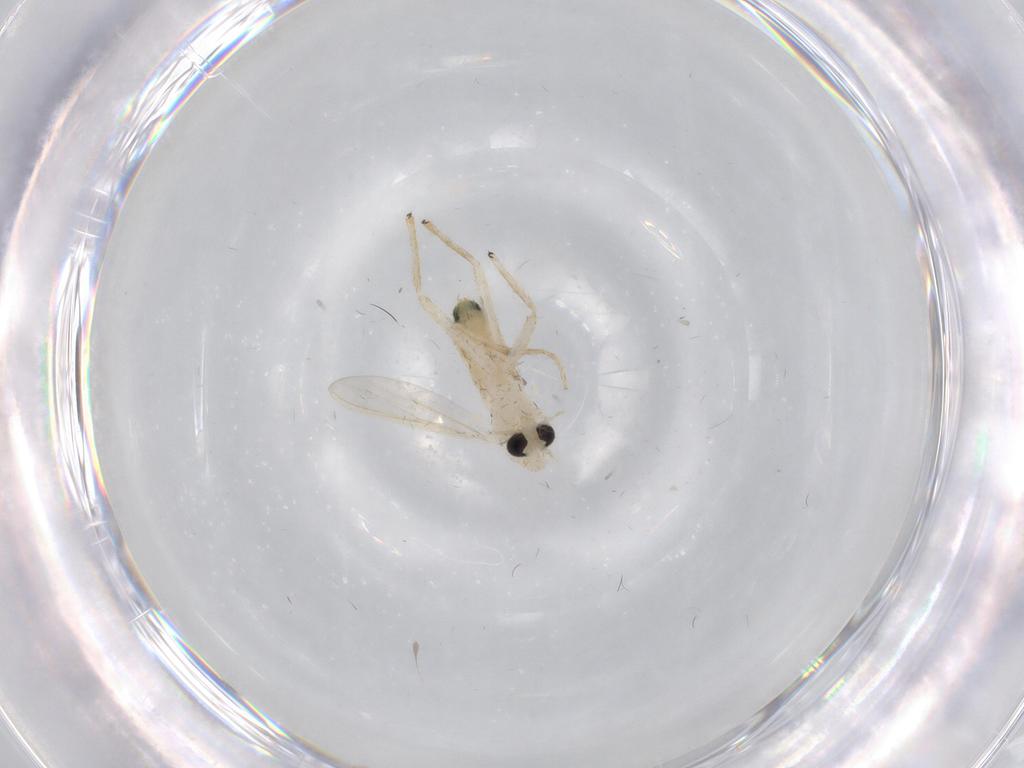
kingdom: Animalia
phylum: Arthropoda
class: Insecta
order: Diptera
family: Chironomidae
